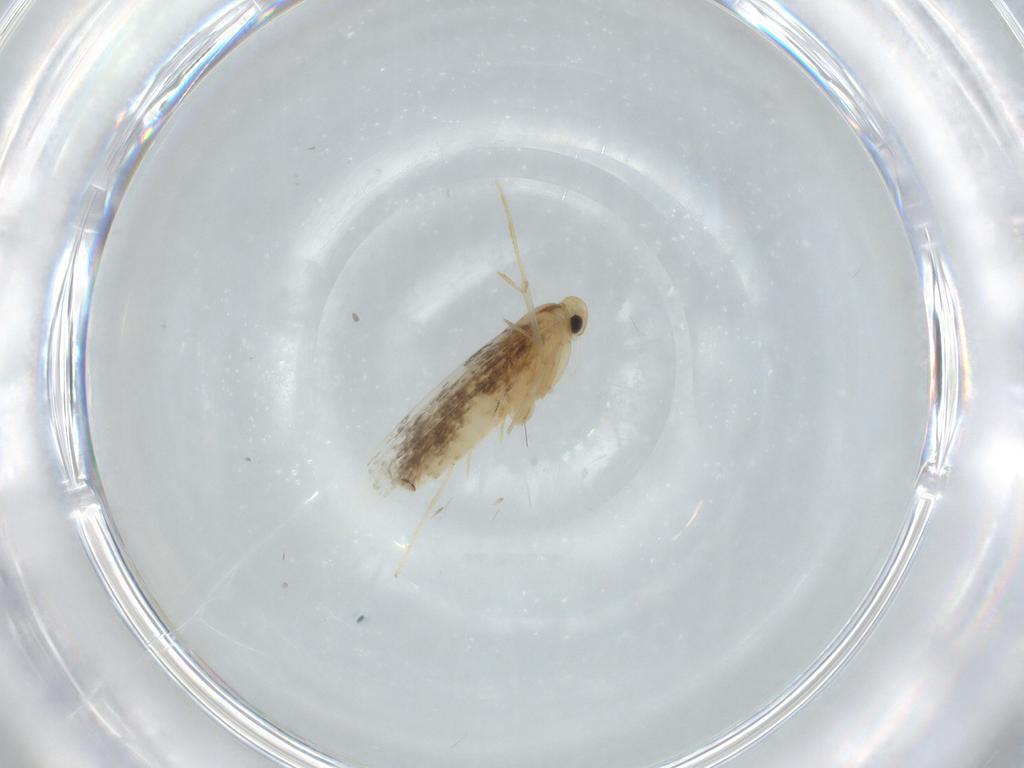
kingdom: Animalia
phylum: Arthropoda
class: Insecta
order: Lepidoptera
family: Gracillariidae
